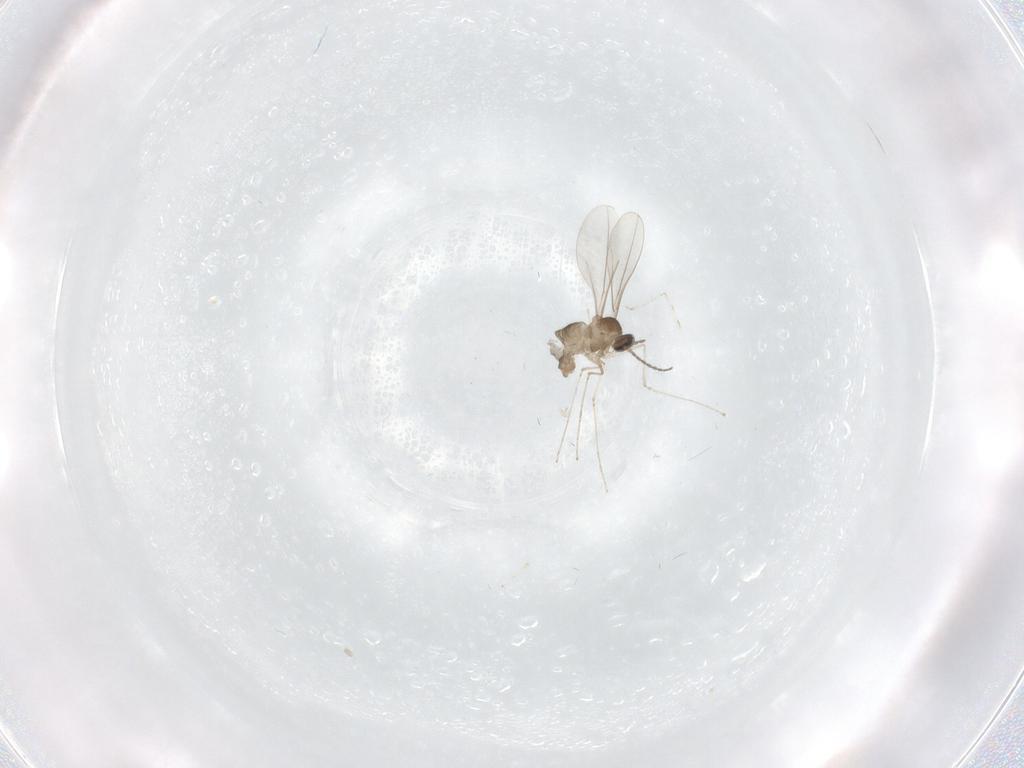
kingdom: Animalia
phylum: Arthropoda
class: Insecta
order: Diptera
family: Cecidomyiidae
